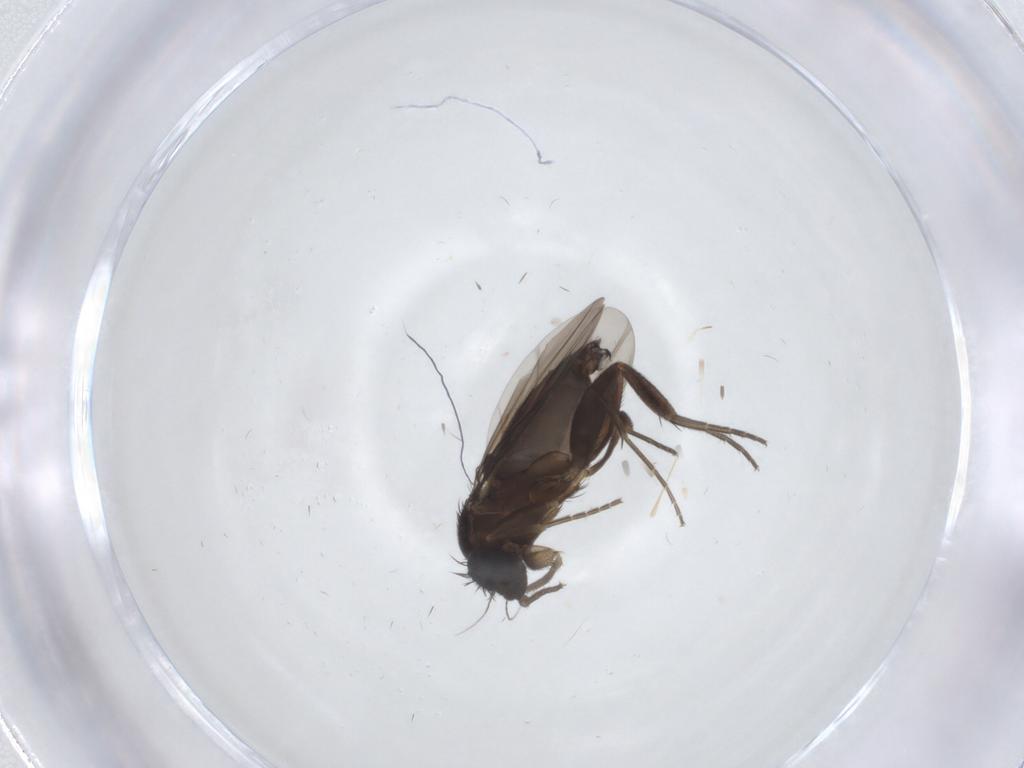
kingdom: Animalia
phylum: Arthropoda
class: Insecta
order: Diptera
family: Phoridae
